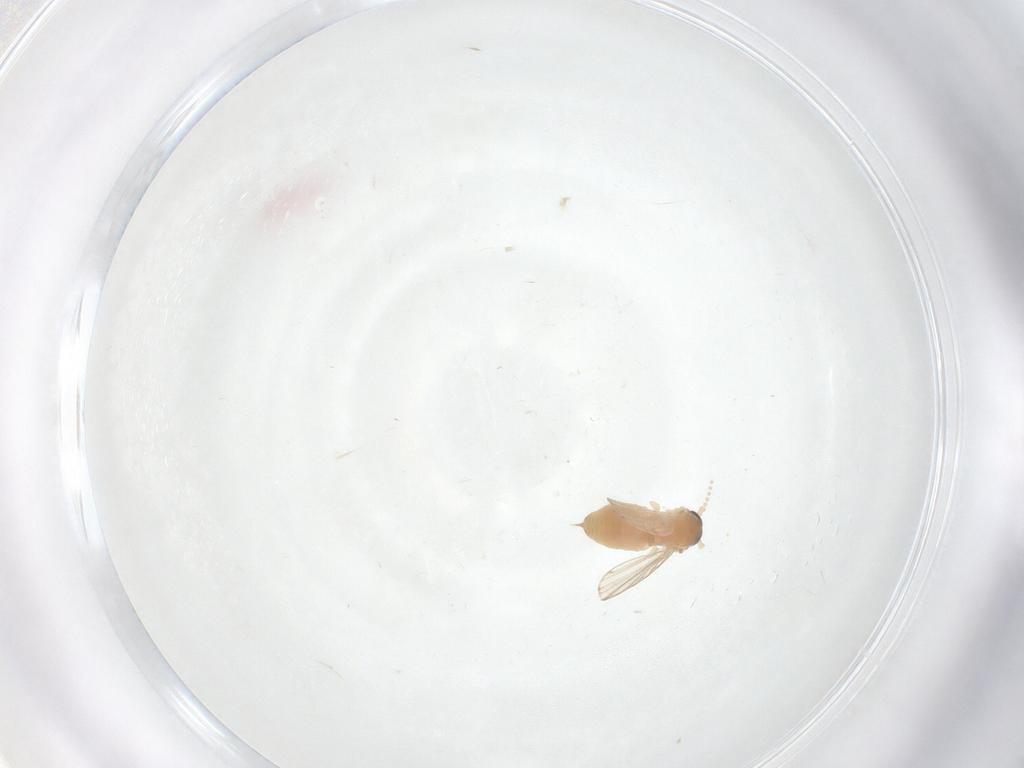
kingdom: Animalia
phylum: Arthropoda
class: Insecta
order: Diptera
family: Psychodidae
